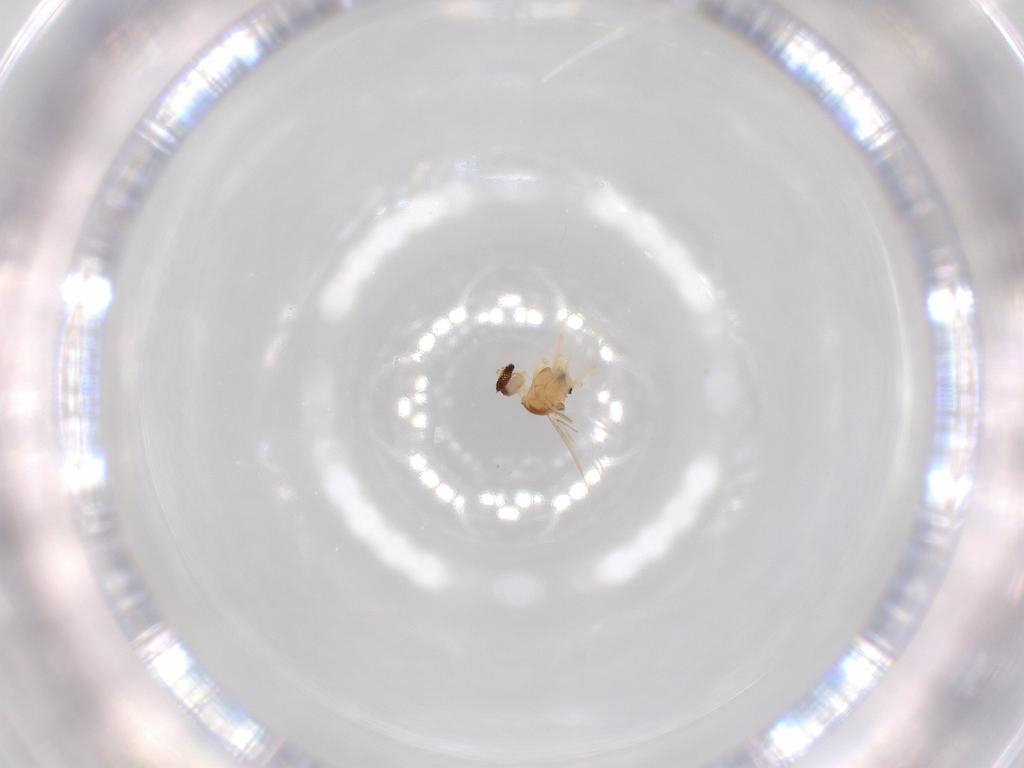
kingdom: Animalia
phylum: Arthropoda
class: Insecta
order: Diptera
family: Cecidomyiidae
